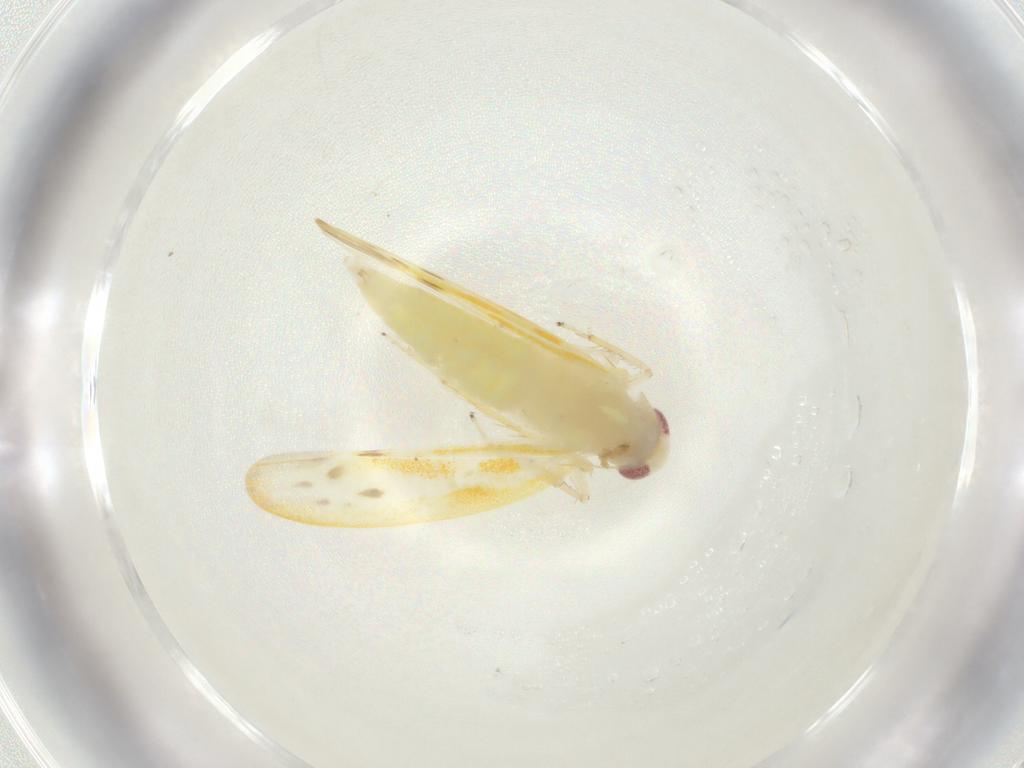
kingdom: Animalia
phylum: Arthropoda
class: Insecta
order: Hemiptera
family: Cicadellidae
